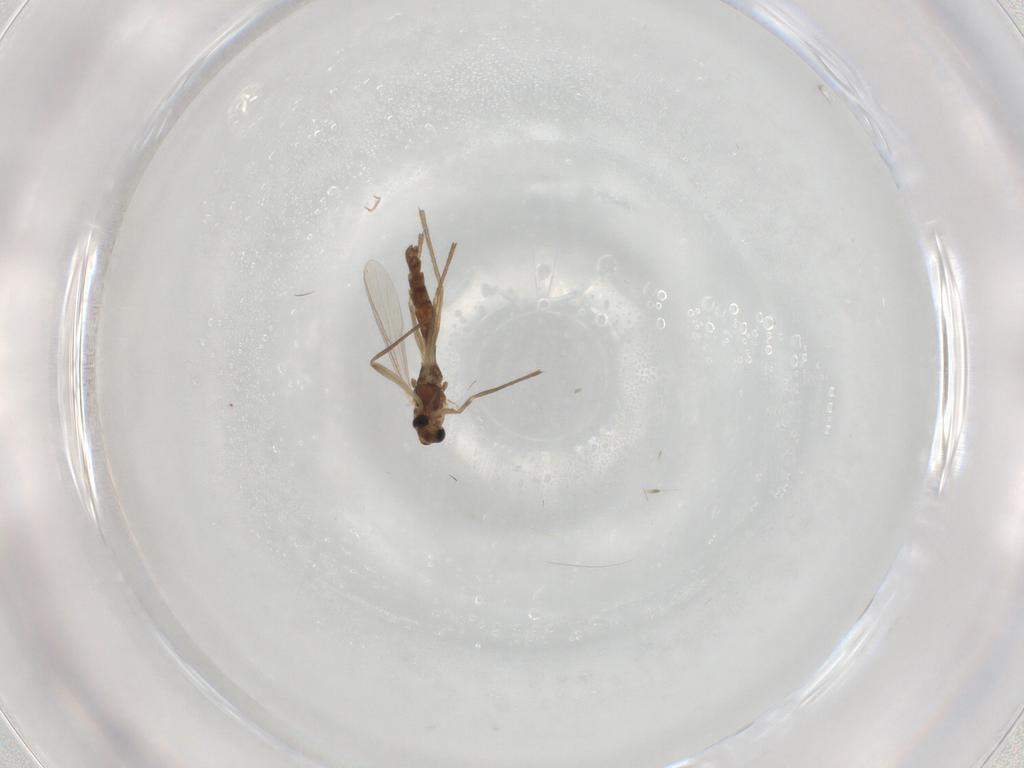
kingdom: Animalia
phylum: Arthropoda
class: Insecta
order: Diptera
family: Chironomidae
